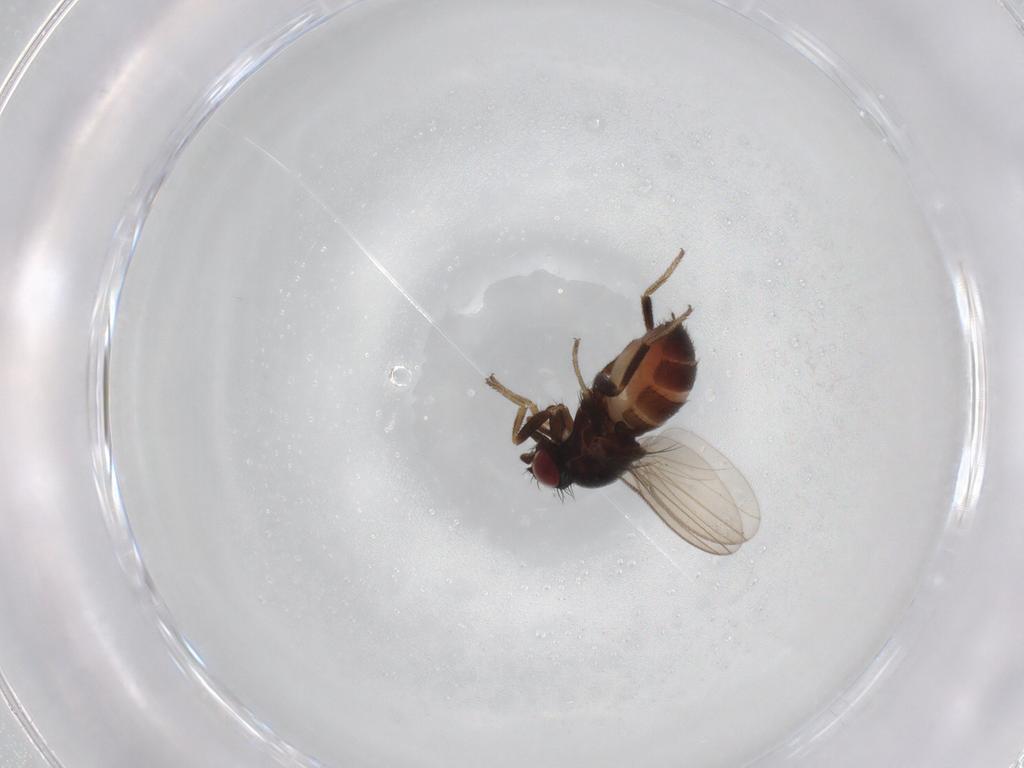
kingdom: Animalia
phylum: Arthropoda
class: Insecta
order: Diptera
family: Milichiidae
